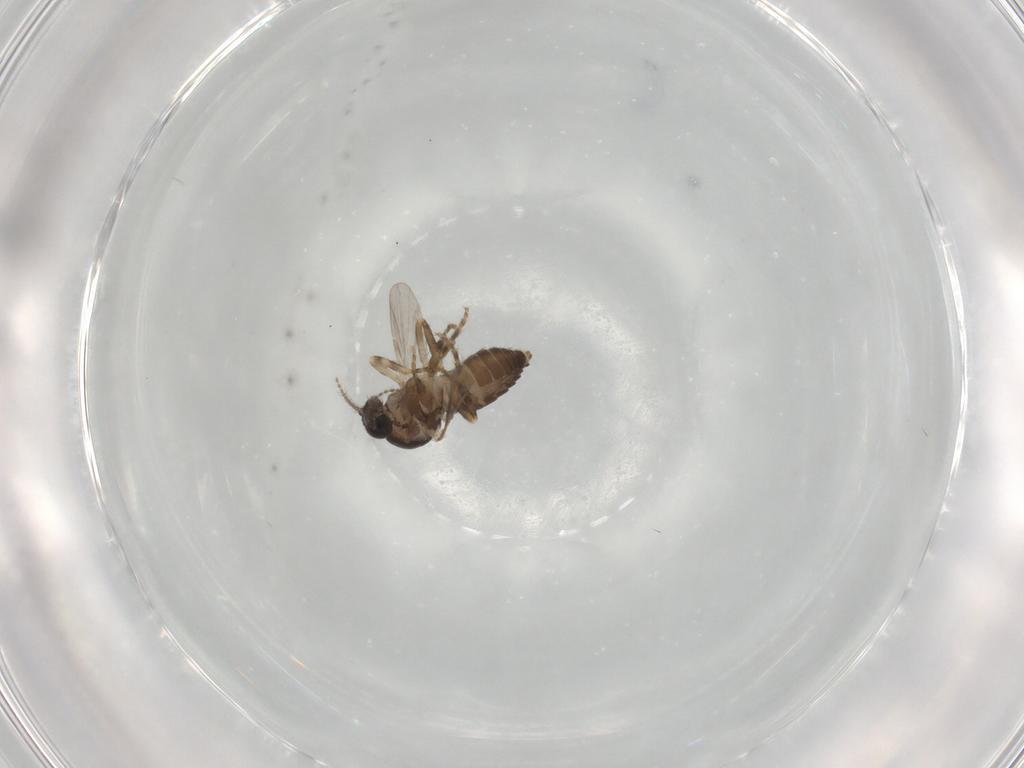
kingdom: Animalia
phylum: Arthropoda
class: Insecta
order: Diptera
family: Ceratopogonidae
